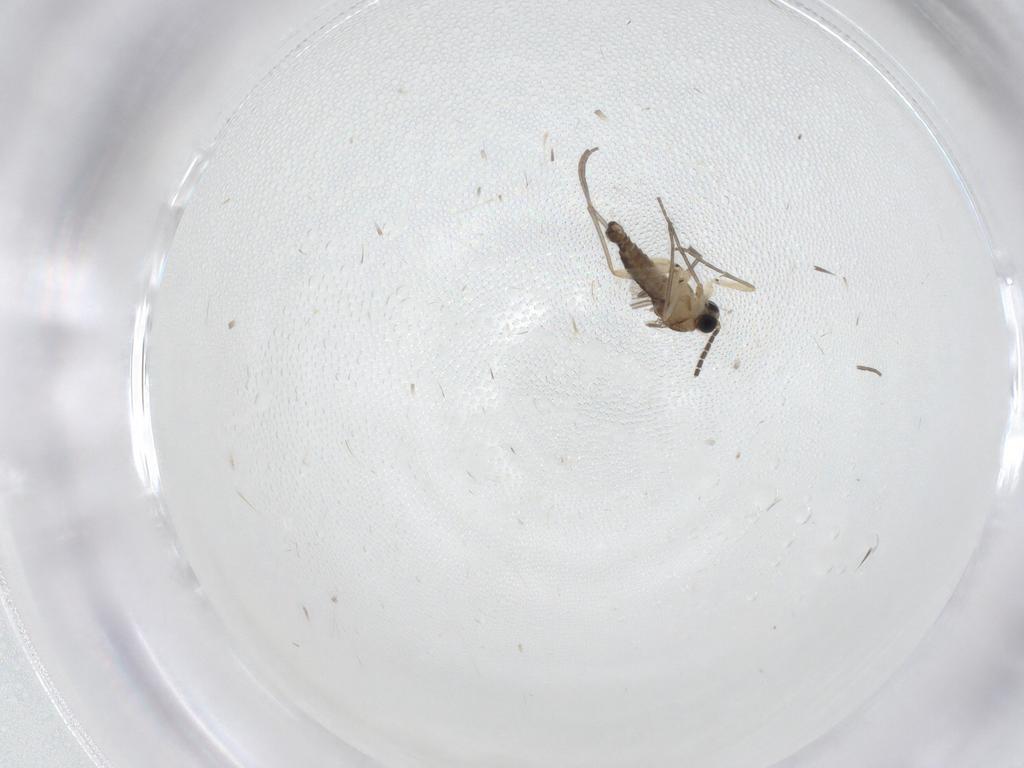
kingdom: Animalia
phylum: Arthropoda
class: Insecta
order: Diptera
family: Sciaridae
